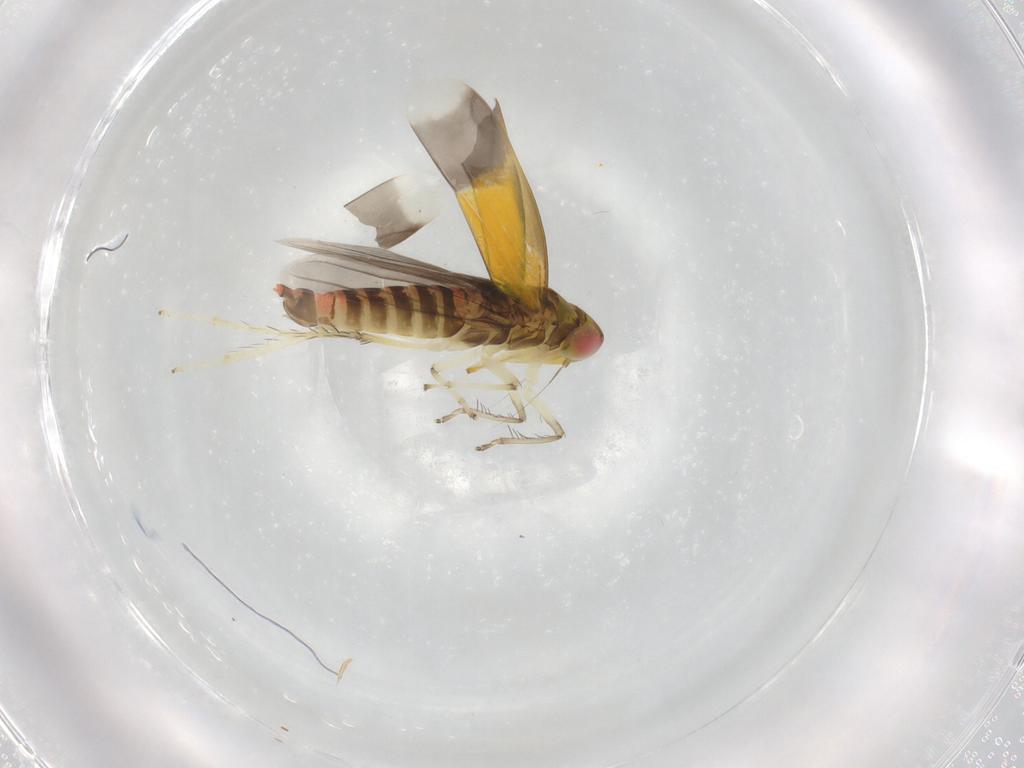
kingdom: Animalia
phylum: Arthropoda
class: Insecta
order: Hemiptera
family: Cicadellidae
